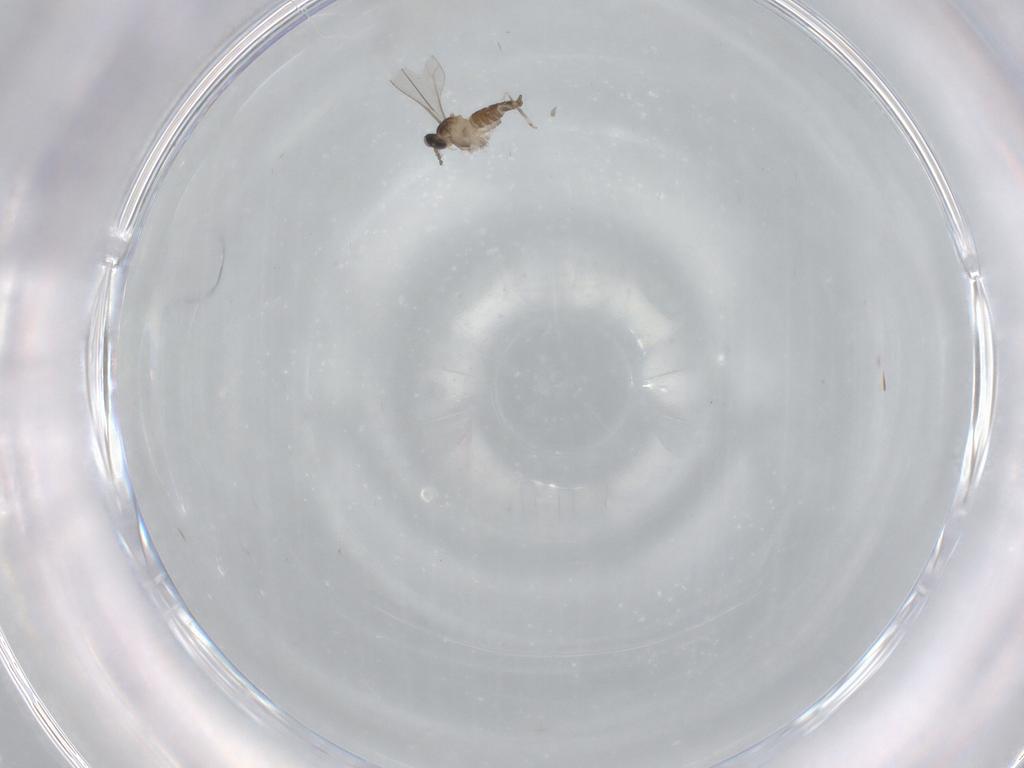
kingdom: Animalia
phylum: Arthropoda
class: Insecta
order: Diptera
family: Cecidomyiidae
